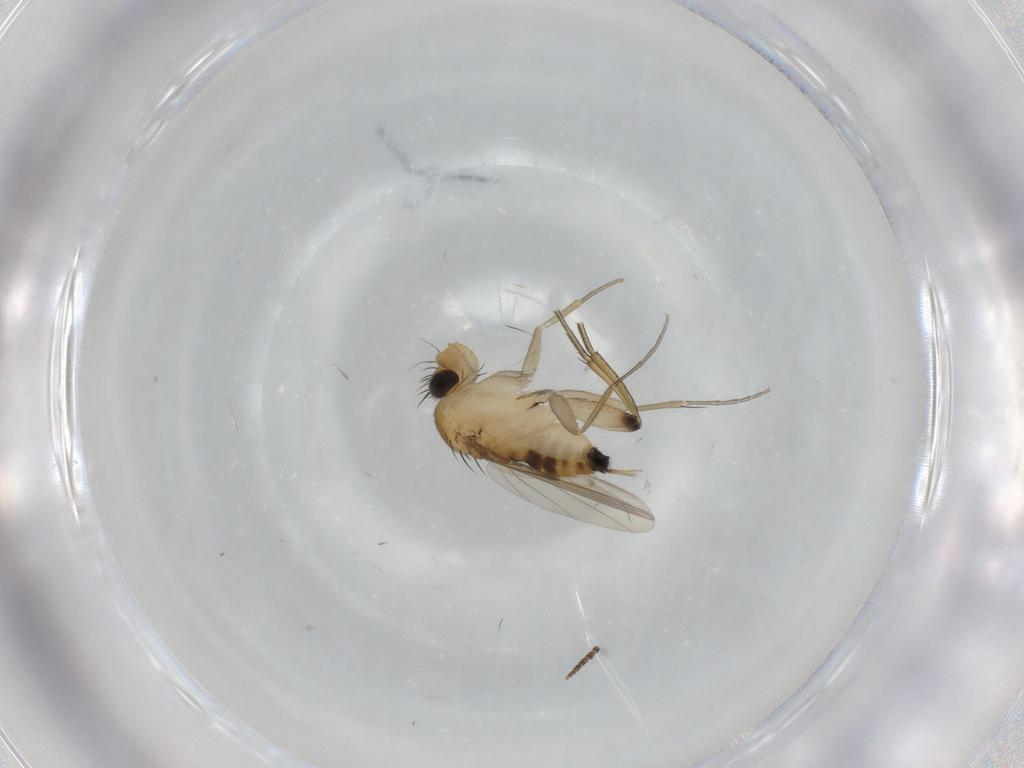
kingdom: Animalia
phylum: Arthropoda
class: Insecta
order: Diptera
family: Phoridae
